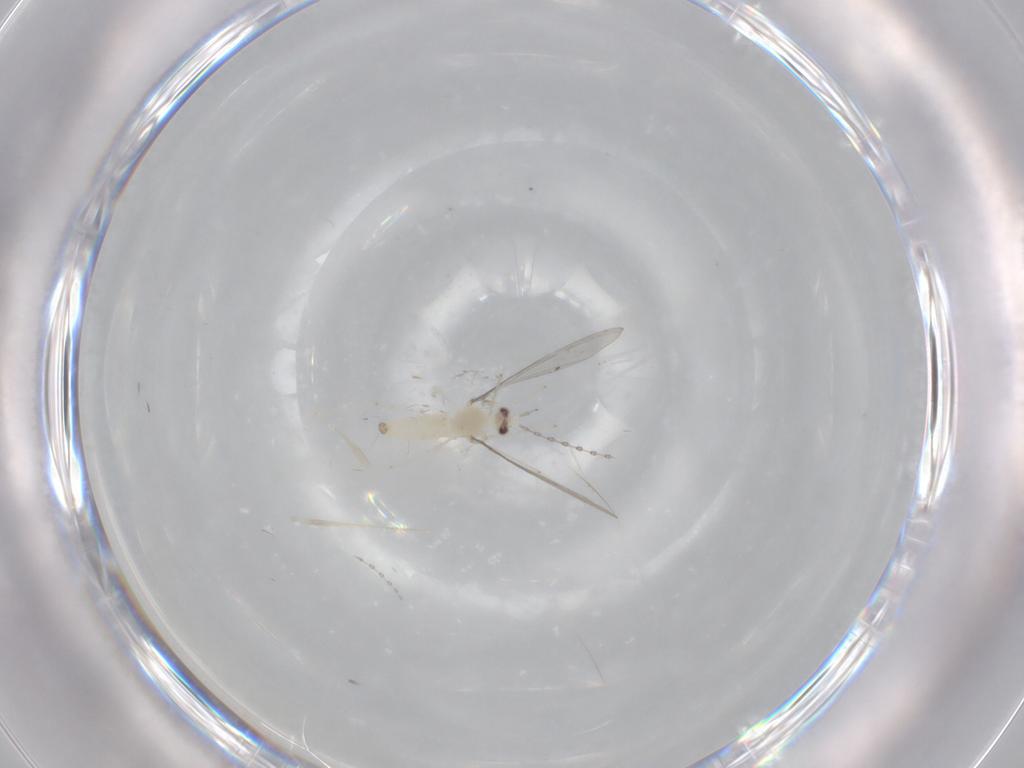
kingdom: Animalia
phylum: Arthropoda
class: Insecta
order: Diptera
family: Cecidomyiidae
